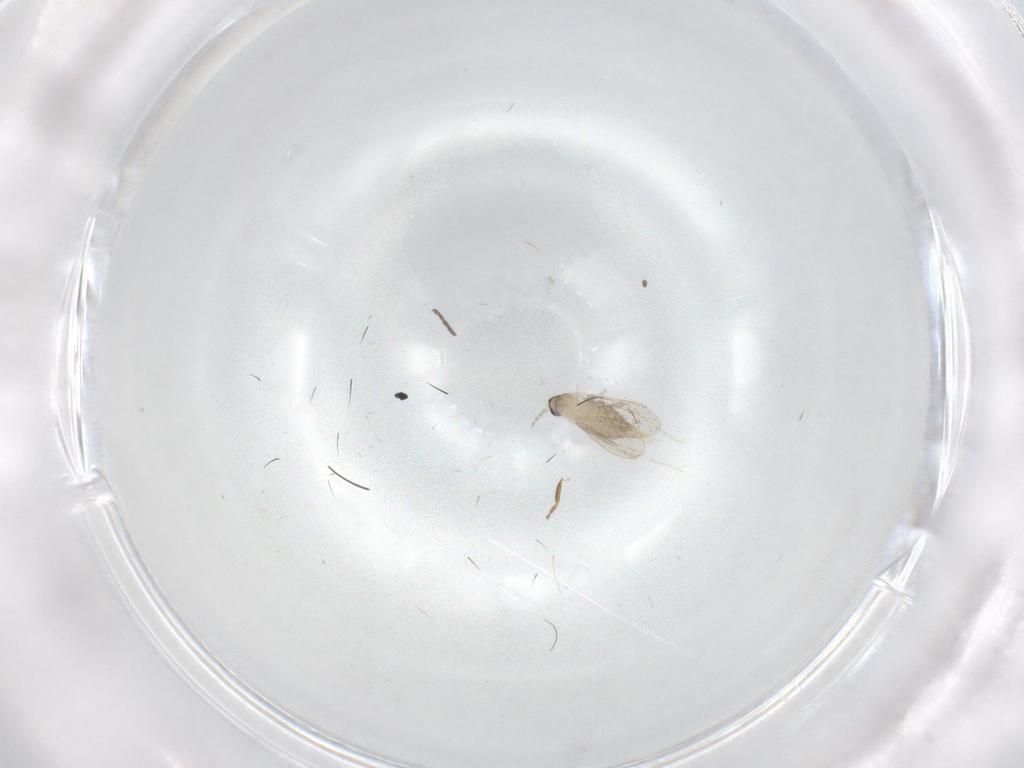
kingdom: Animalia
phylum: Arthropoda
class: Insecta
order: Diptera
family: Cecidomyiidae
